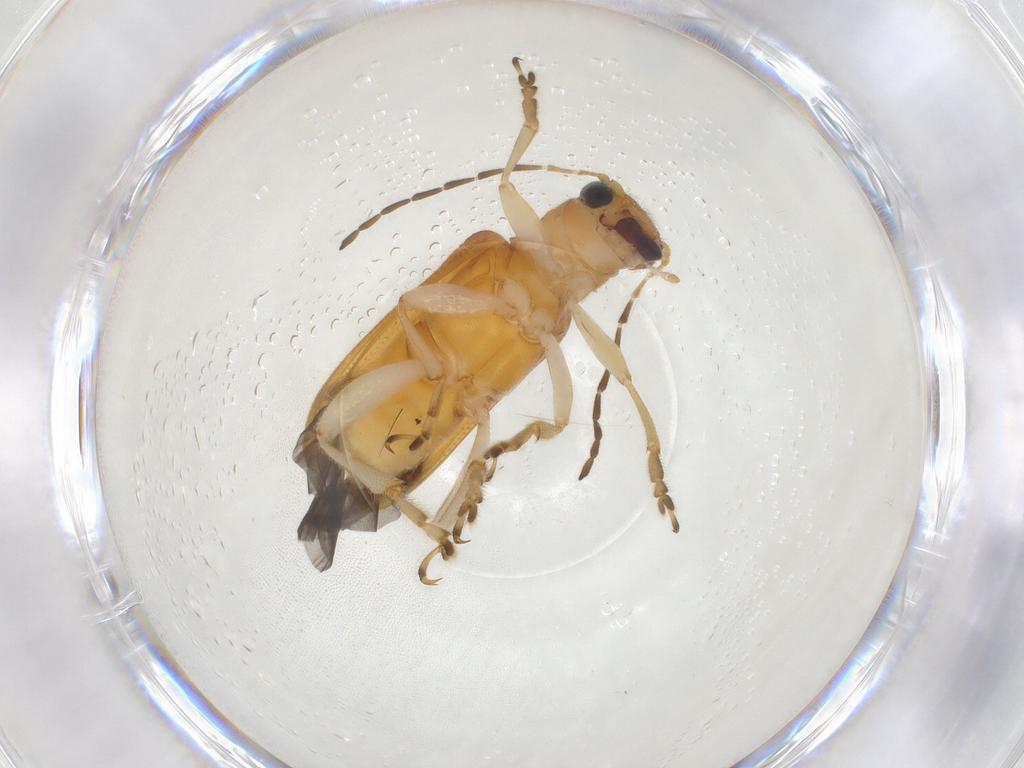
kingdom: Animalia
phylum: Arthropoda
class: Insecta
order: Coleoptera
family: Chrysomelidae
